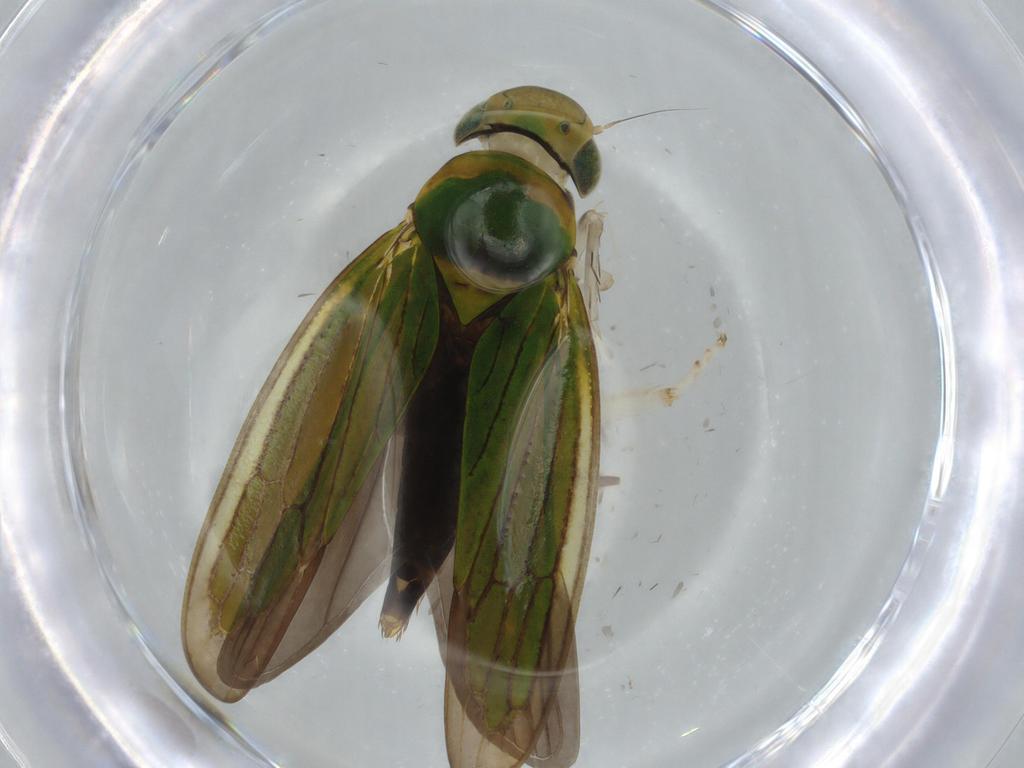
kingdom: Animalia
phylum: Arthropoda
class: Insecta
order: Hemiptera
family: Cicadellidae
